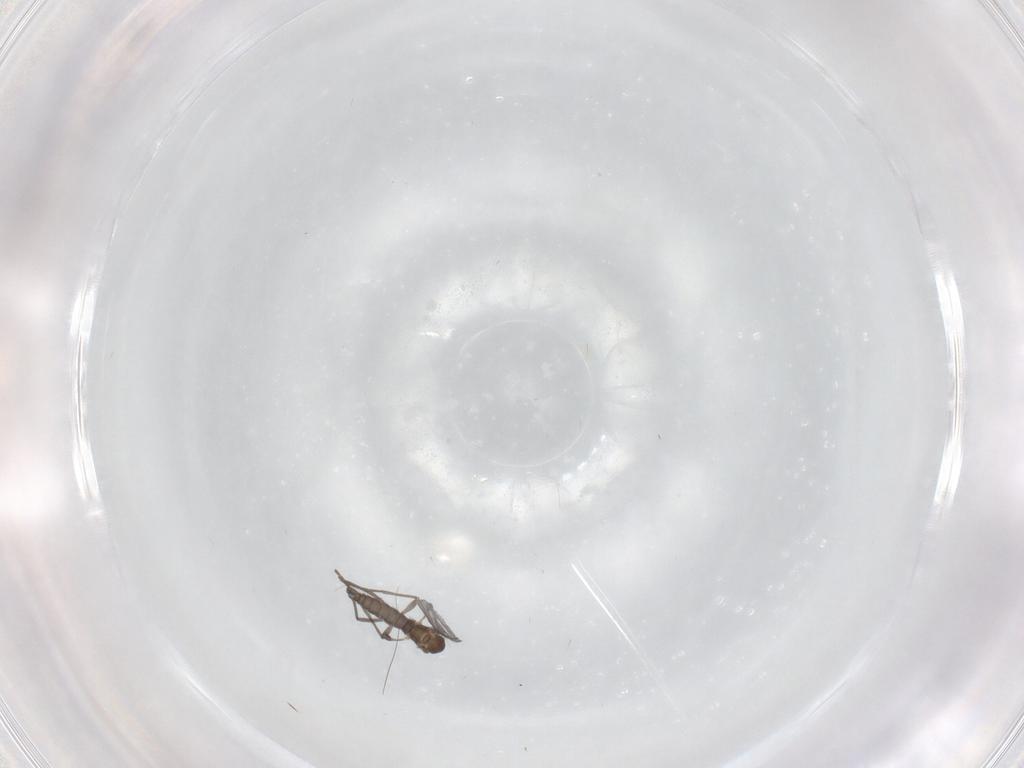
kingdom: Animalia
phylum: Arthropoda
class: Insecta
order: Diptera
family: Sciaridae
